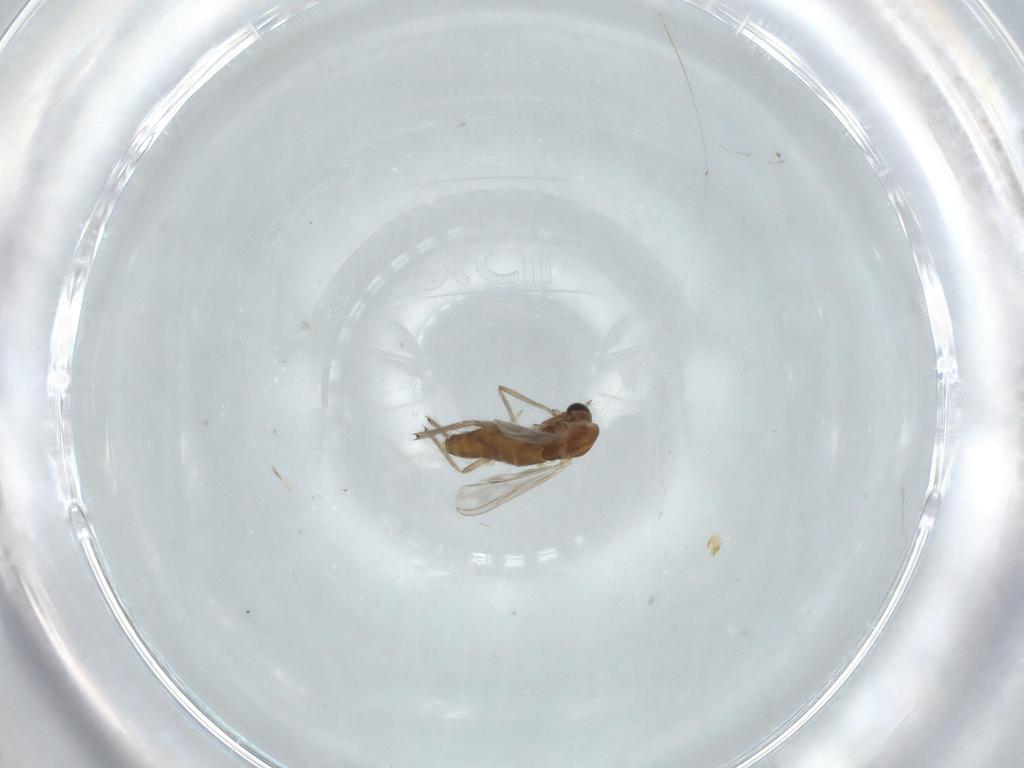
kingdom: Animalia
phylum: Arthropoda
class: Insecta
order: Diptera
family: Chironomidae
